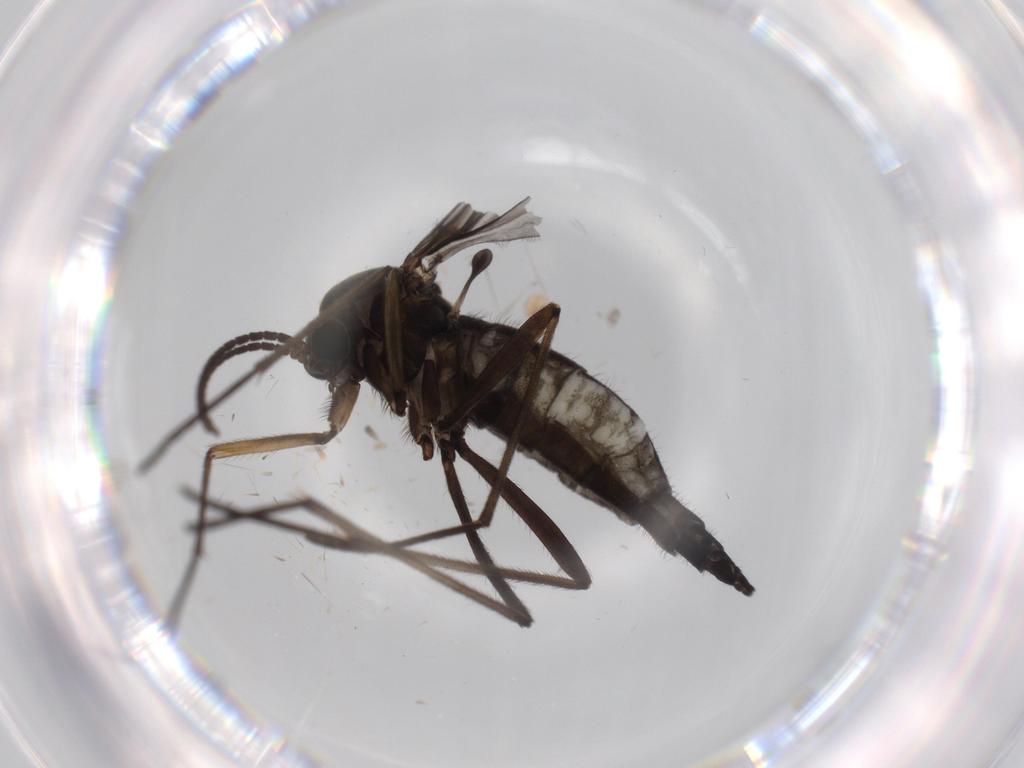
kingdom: Animalia
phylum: Arthropoda
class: Insecta
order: Diptera
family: Sciaridae
